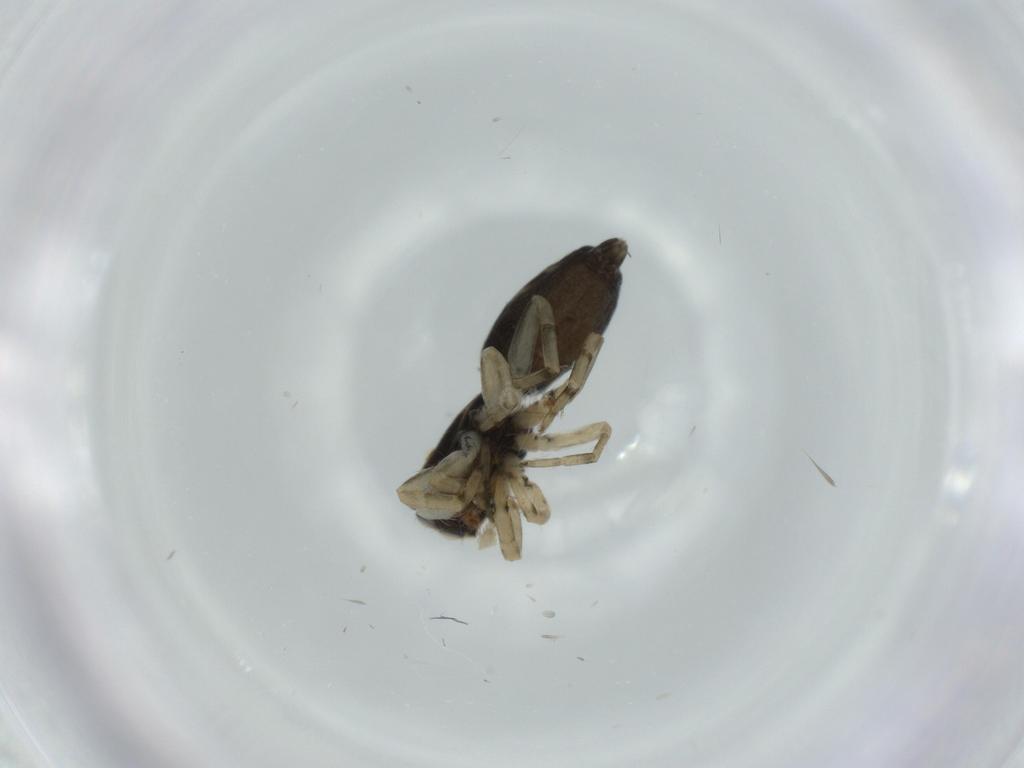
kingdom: Animalia
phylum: Arthropoda
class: Arachnida
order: Araneae
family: Salticidae
